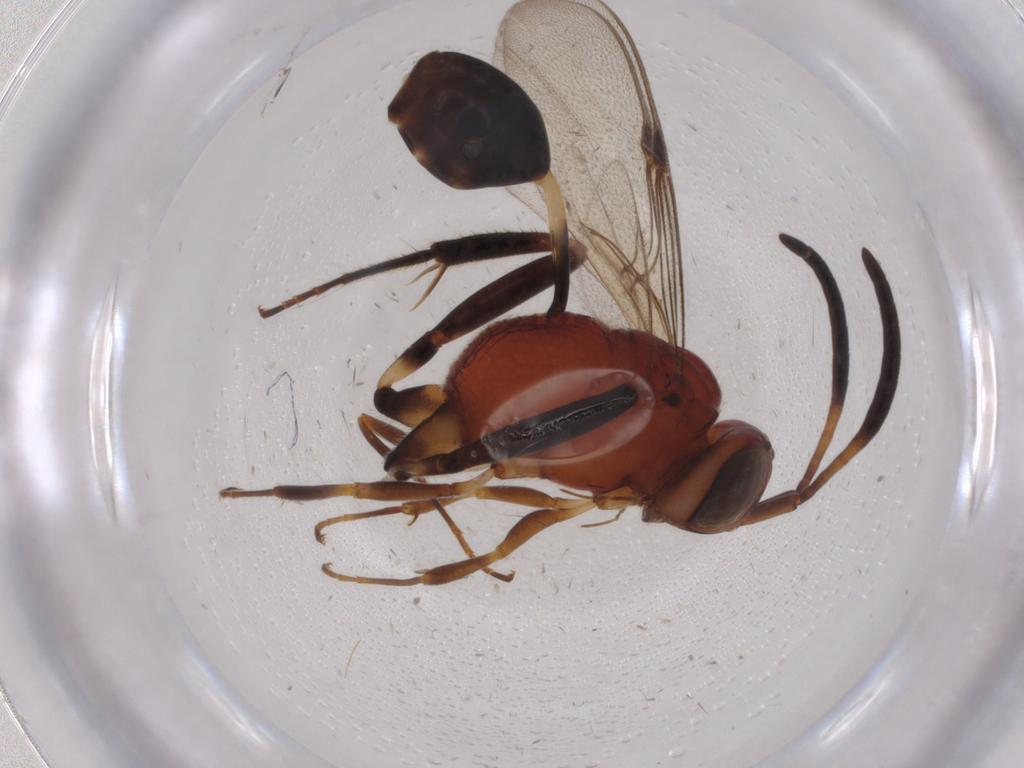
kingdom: Animalia
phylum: Arthropoda
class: Insecta
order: Hymenoptera
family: Evaniidae
